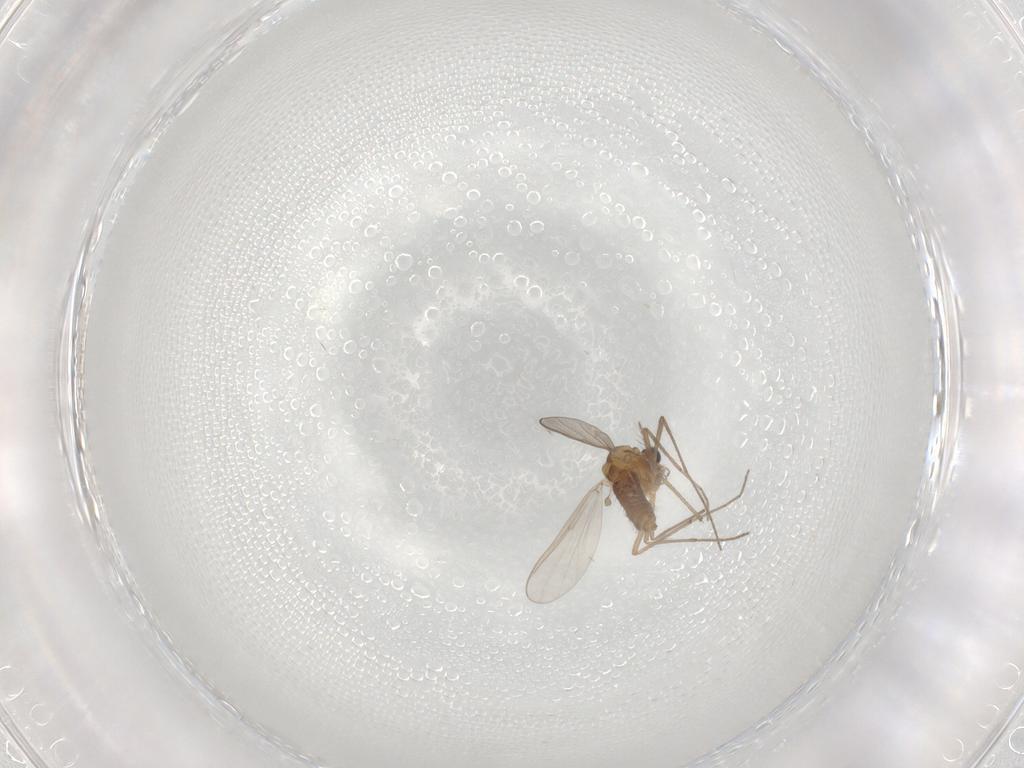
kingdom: Animalia
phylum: Arthropoda
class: Insecta
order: Diptera
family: Chironomidae
